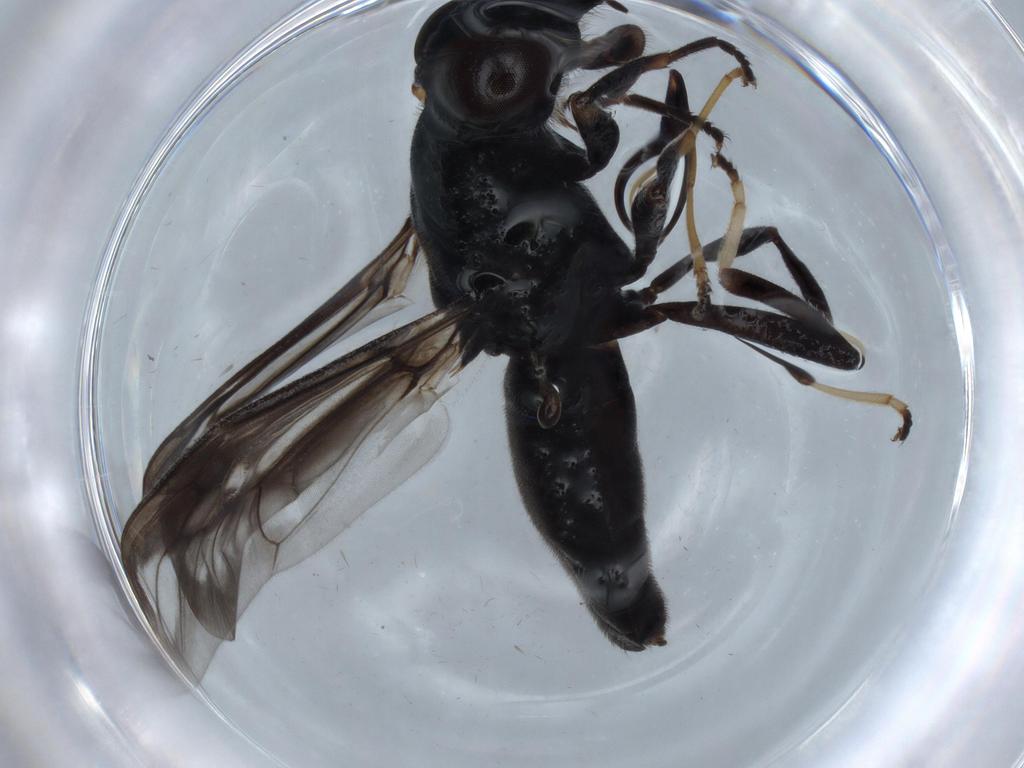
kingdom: Animalia
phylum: Arthropoda
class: Insecta
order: Diptera
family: Stratiomyidae
